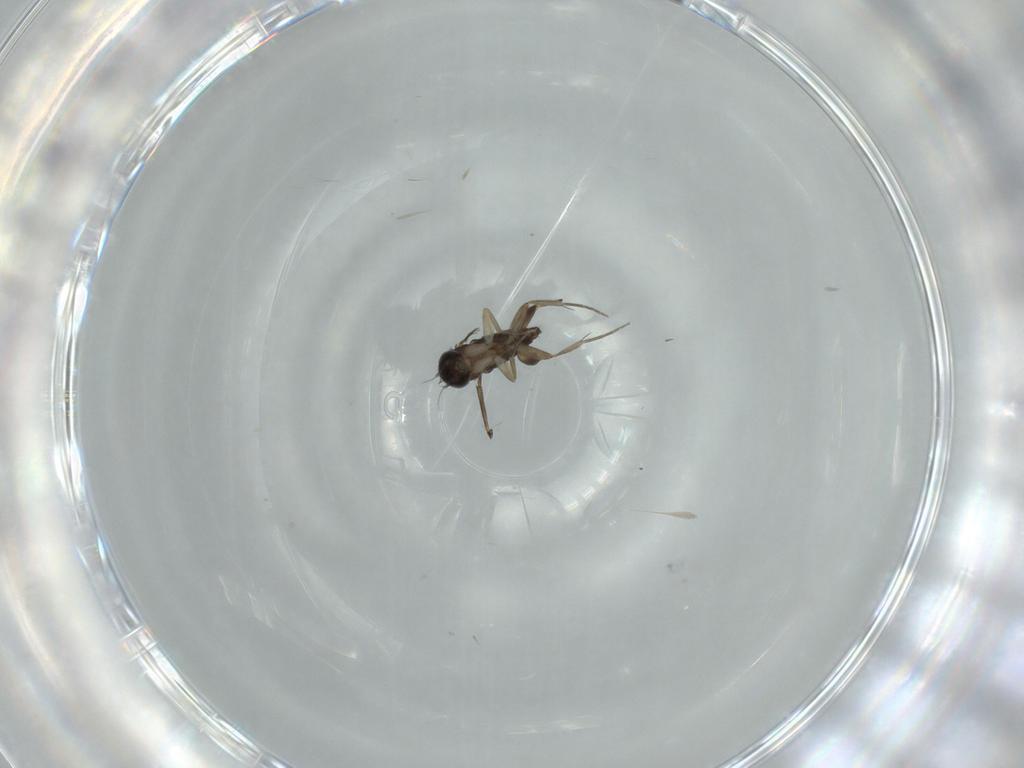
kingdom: Animalia
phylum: Arthropoda
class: Insecta
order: Diptera
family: Phoridae
